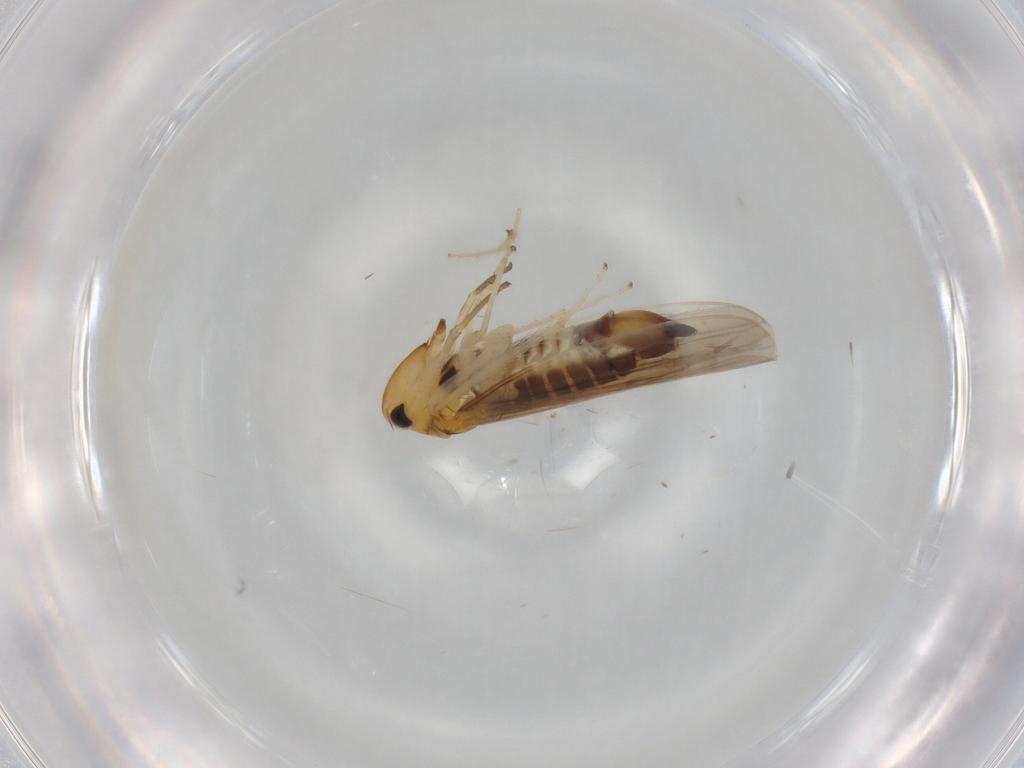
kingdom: Animalia
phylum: Arthropoda
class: Insecta
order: Hemiptera
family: Cicadellidae
